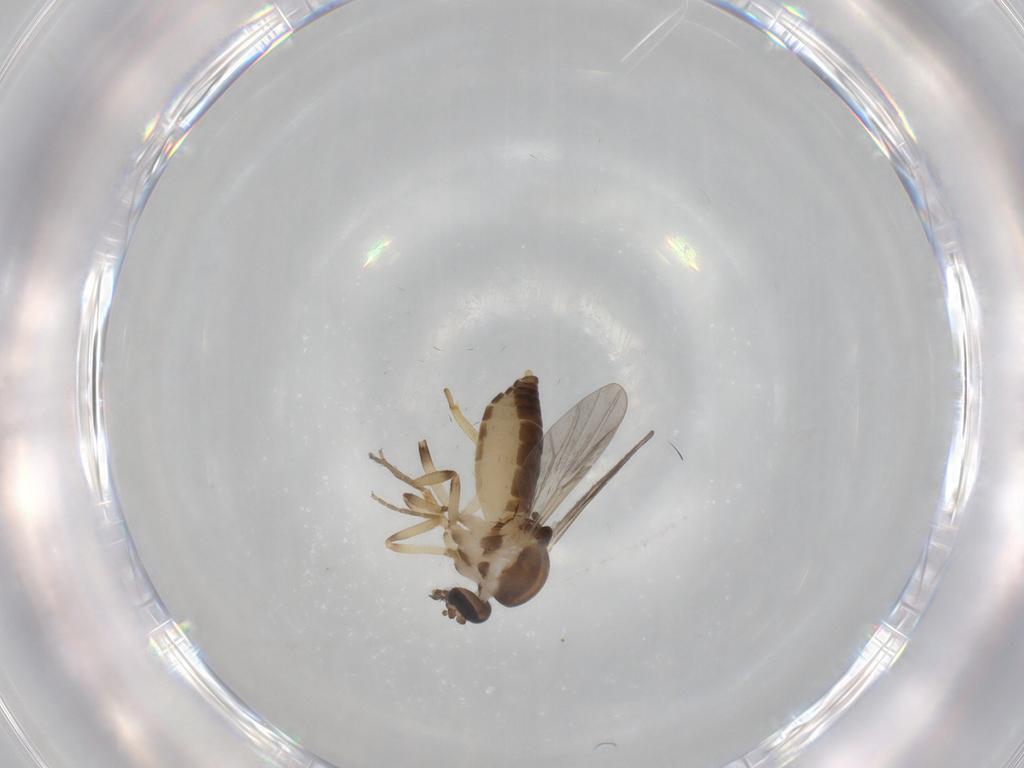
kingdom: Animalia
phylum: Arthropoda
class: Insecta
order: Diptera
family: Ceratopogonidae
